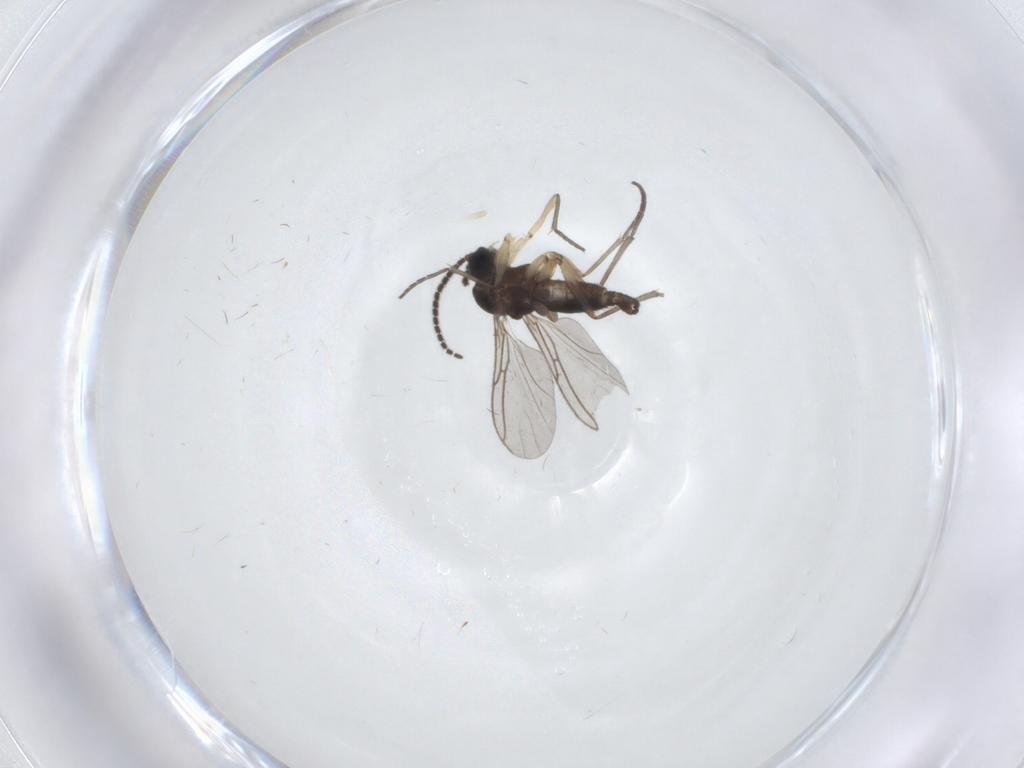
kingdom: Animalia
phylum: Arthropoda
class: Insecta
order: Diptera
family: Sciaridae
